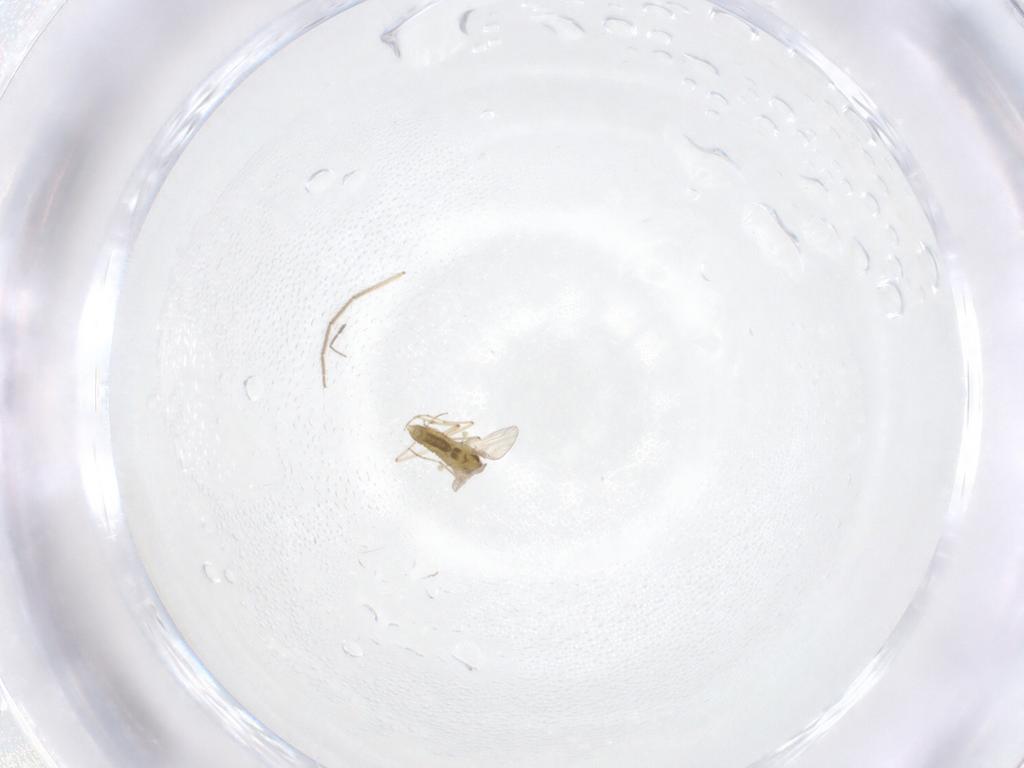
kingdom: Animalia
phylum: Arthropoda
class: Insecta
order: Diptera
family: Chironomidae
